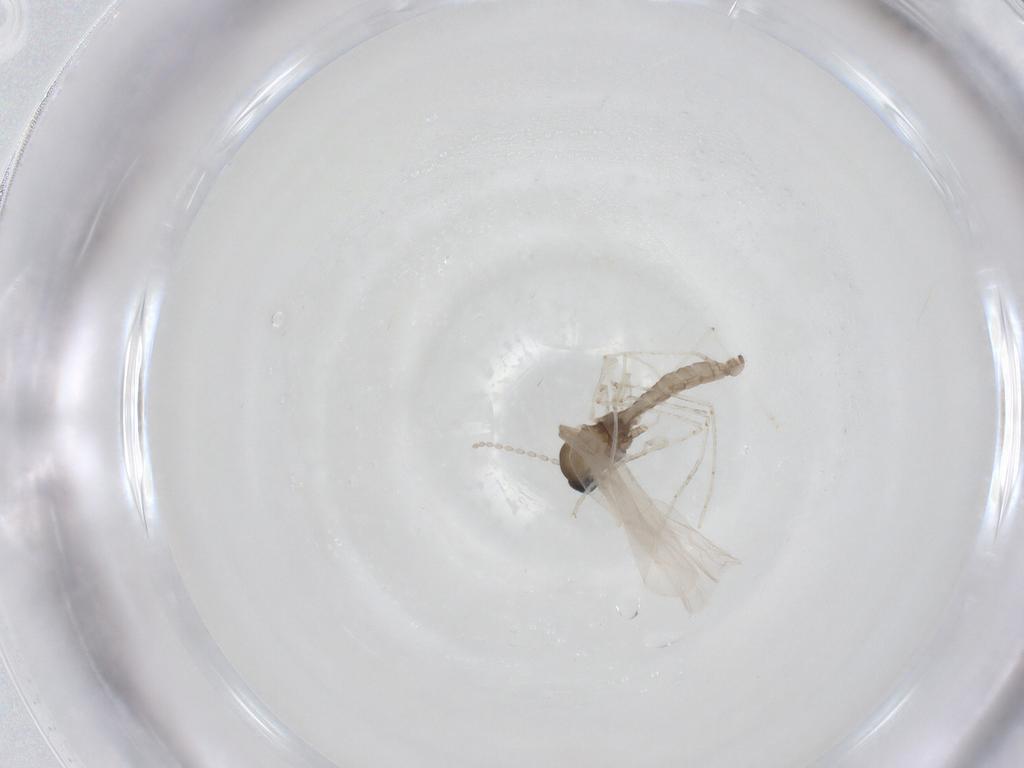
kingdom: Animalia
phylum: Arthropoda
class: Insecta
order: Diptera
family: Cecidomyiidae
